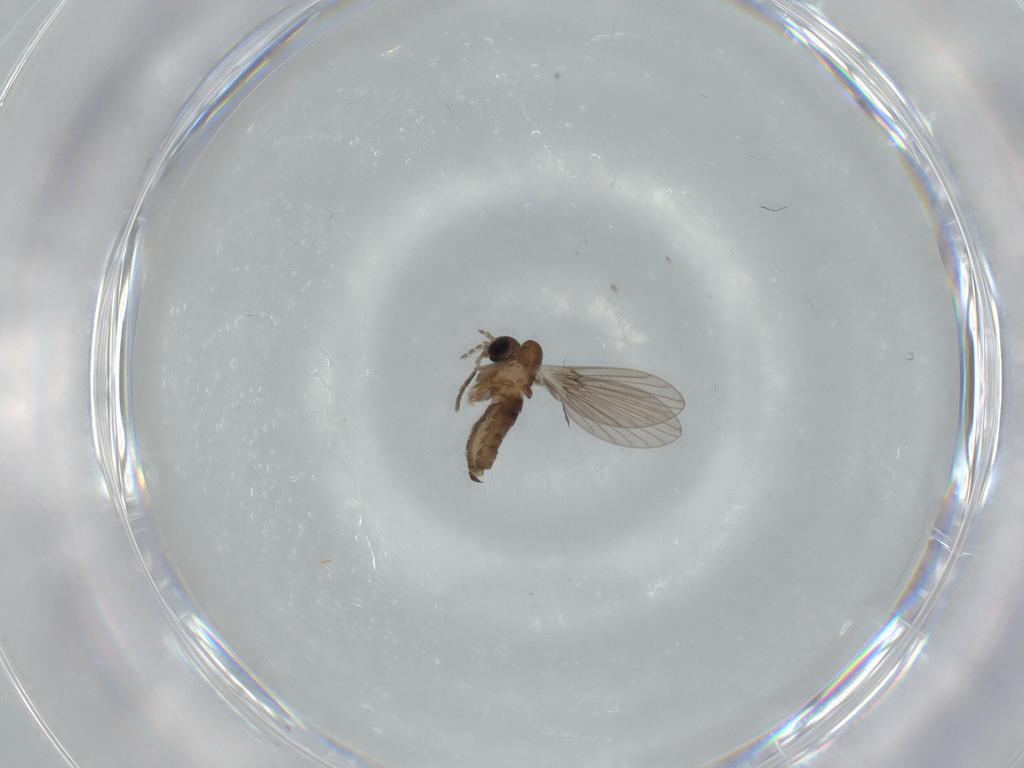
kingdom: Animalia
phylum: Arthropoda
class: Insecta
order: Diptera
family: Psychodidae
